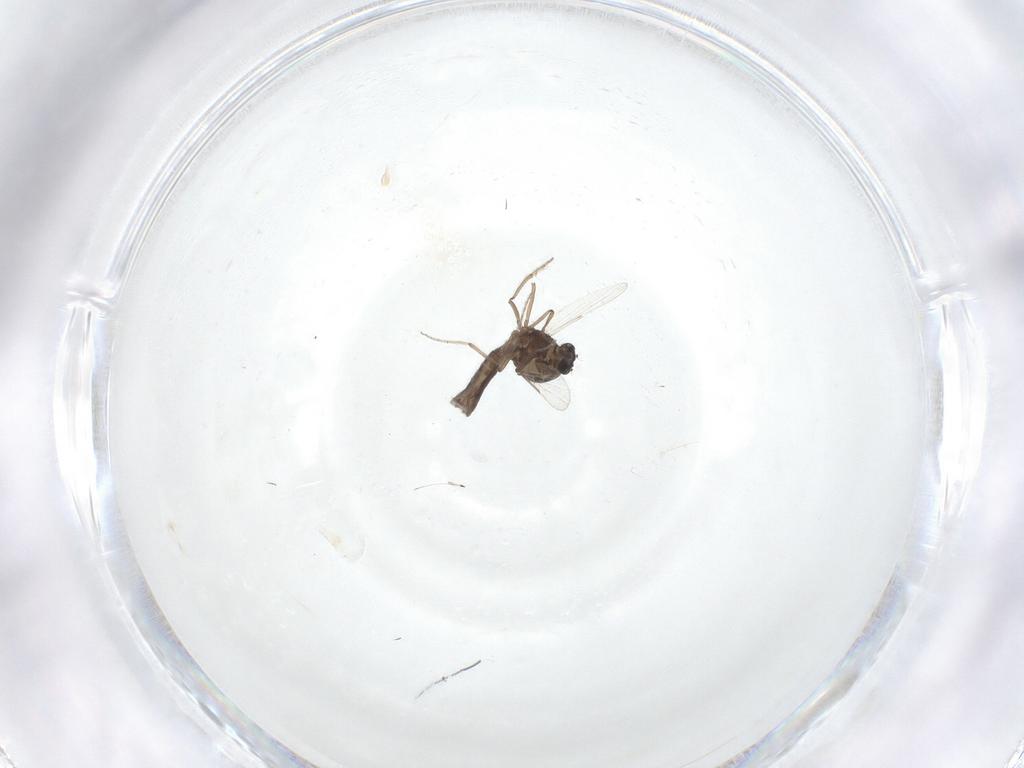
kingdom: Animalia
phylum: Arthropoda
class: Insecta
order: Diptera
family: Ceratopogonidae
